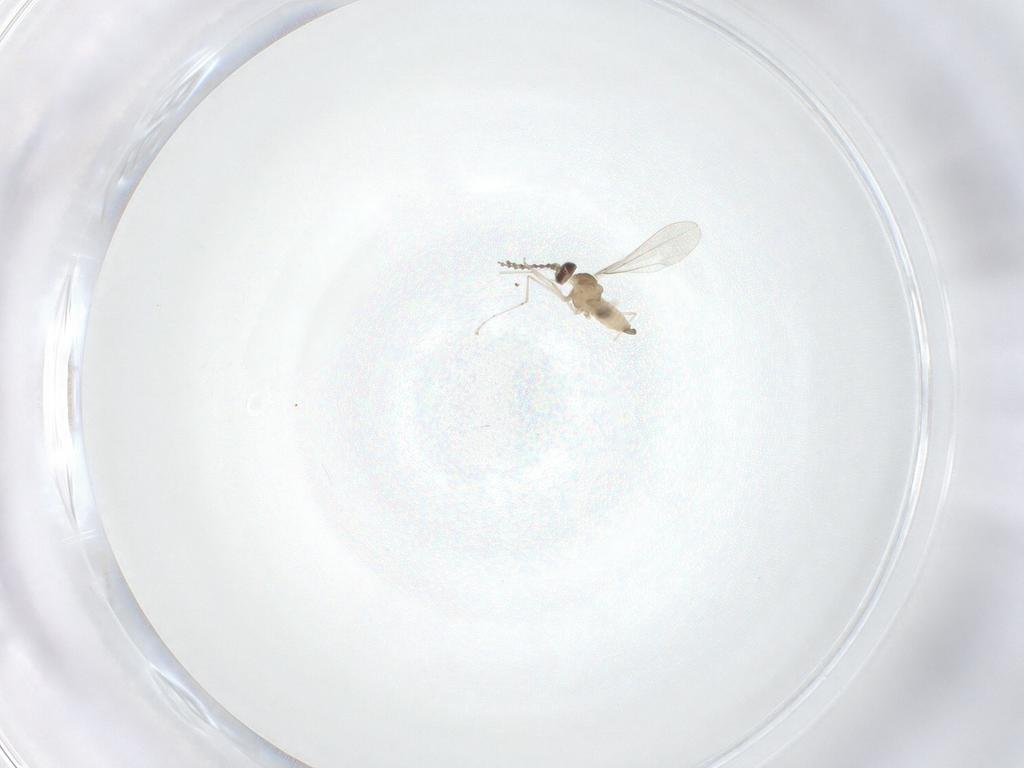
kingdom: Animalia
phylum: Arthropoda
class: Insecta
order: Diptera
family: Cecidomyiidae
